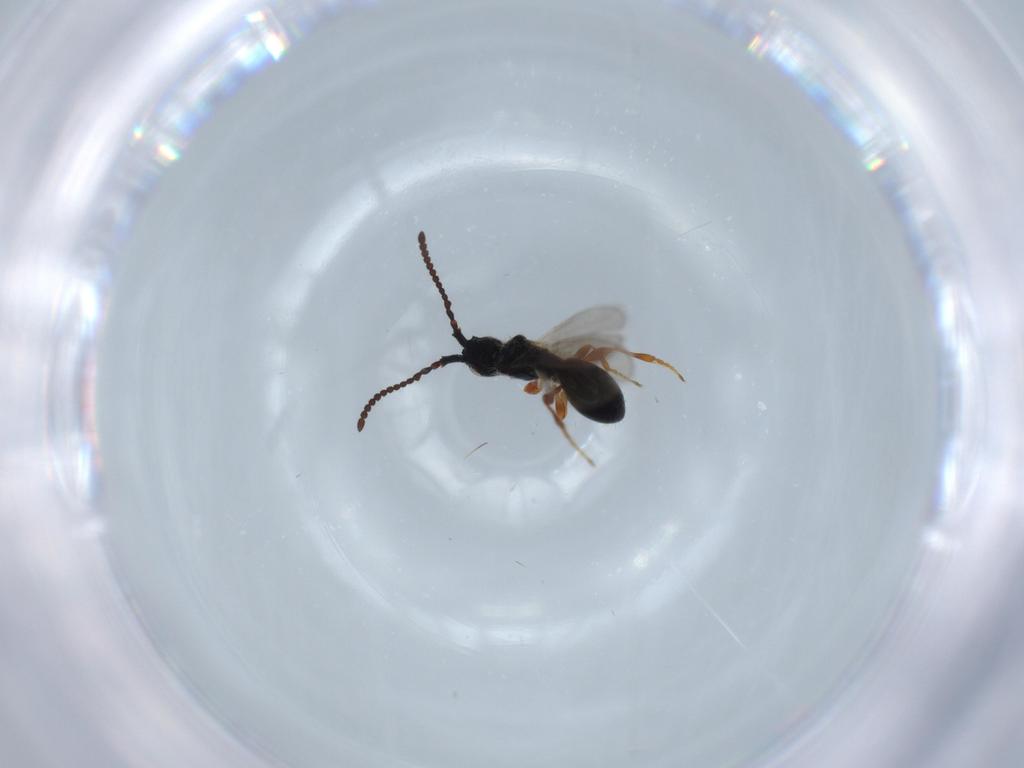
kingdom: Animalia
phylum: Arthropoda
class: Insecta
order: Hymenoptera
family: Diapriidae
